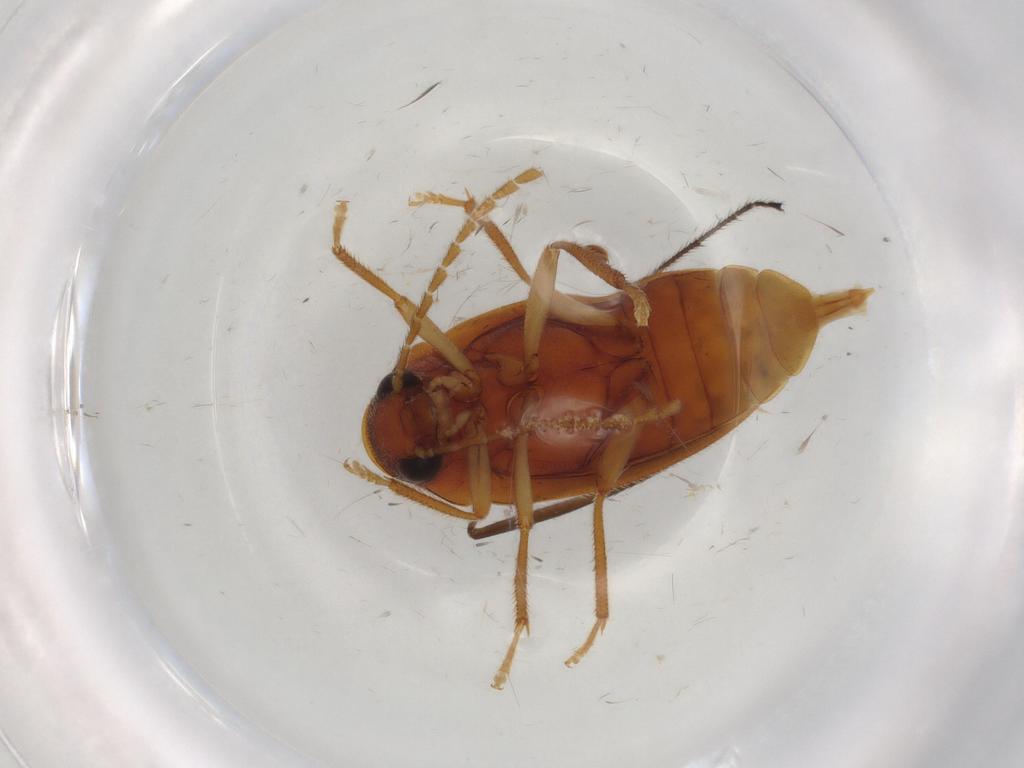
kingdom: Animalia
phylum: Arthropoda
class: Insecta
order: Coleoptera
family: Ptilodactylidae
